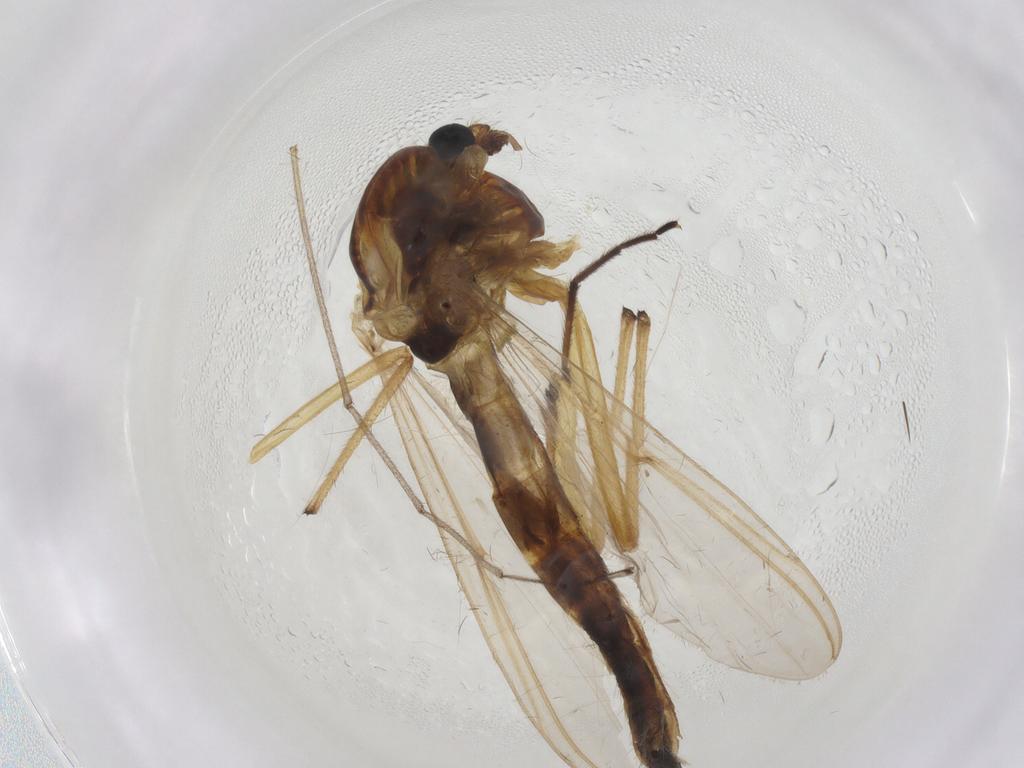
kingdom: Animalia
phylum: Arthropoda
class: Insecta
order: Diptera
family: Chironomidae
